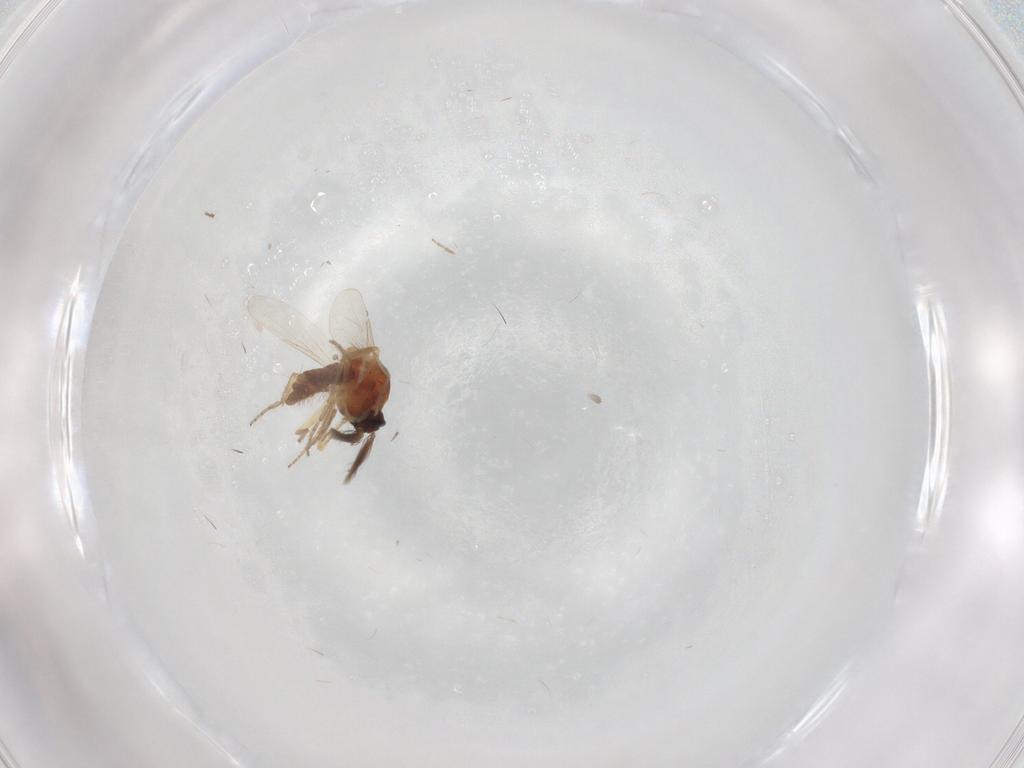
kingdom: Animalia
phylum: Arthropoda
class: Insecta
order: Diptera
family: Ceratopogonidae
